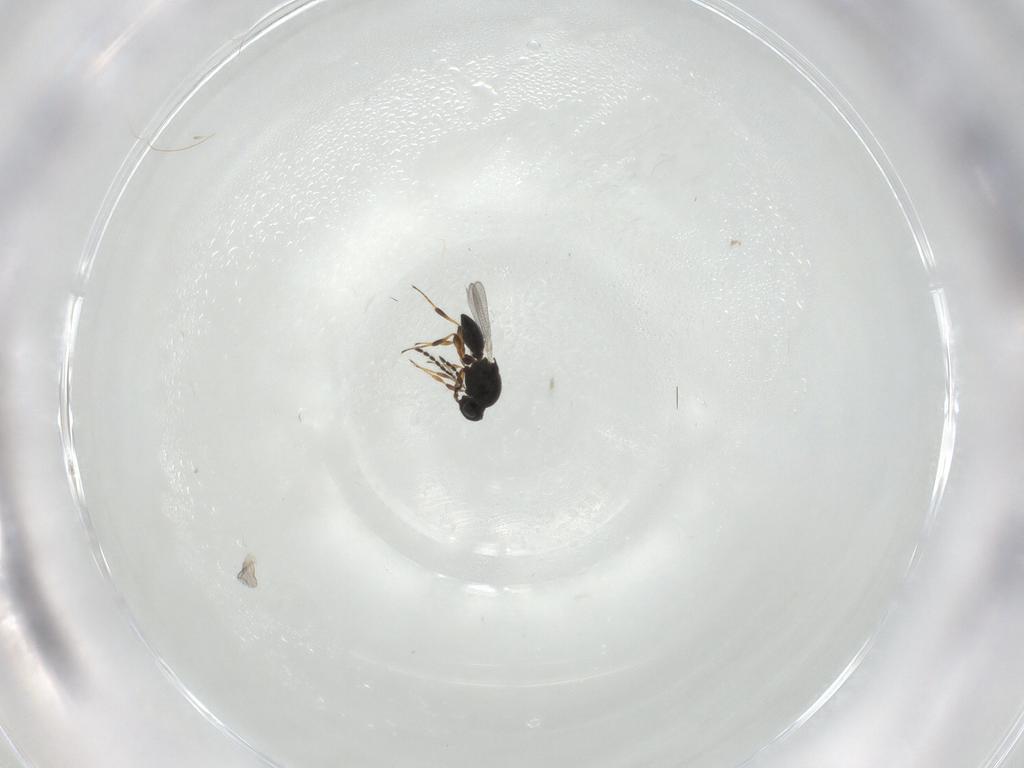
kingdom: Animalia
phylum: Arthropoda
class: Insecta
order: Hymenoptera
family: Platygastridae
